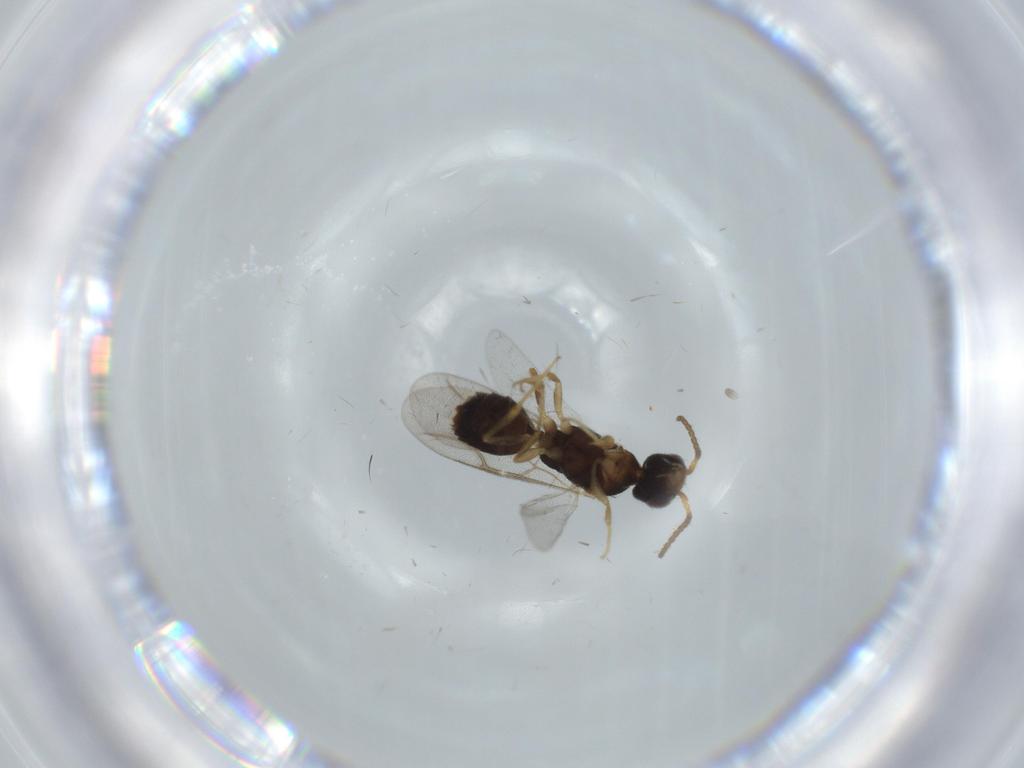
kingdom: Animalia
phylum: Arthropoda
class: Insecta
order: Hymenoptera
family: Bethylidae
